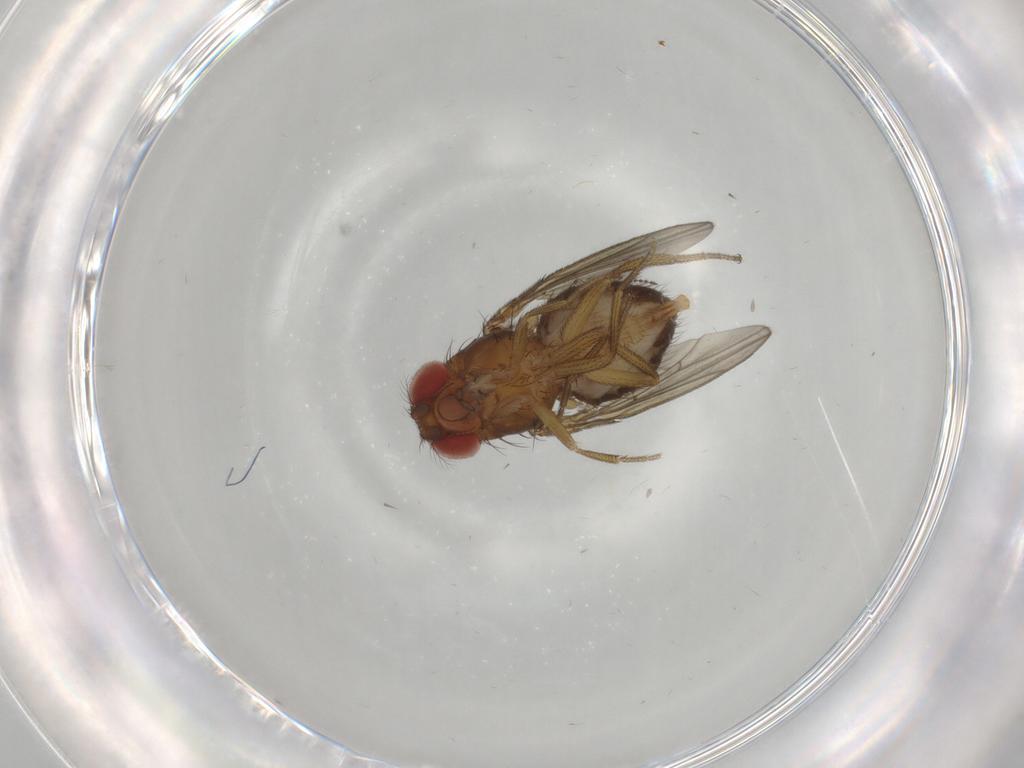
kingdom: Animalia
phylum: Arthropoda
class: Insecta
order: Diptera
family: Drosophilidae
